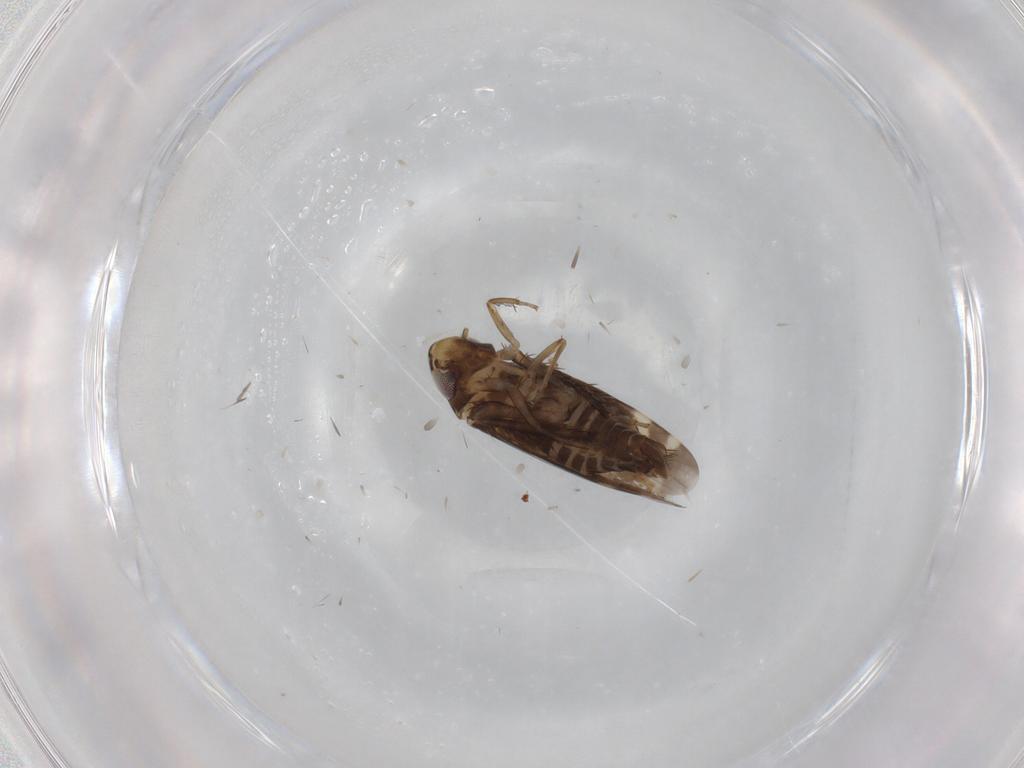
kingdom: Animalia
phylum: Arthropoda
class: Insecta
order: Hemiptera
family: Cicadellidae
